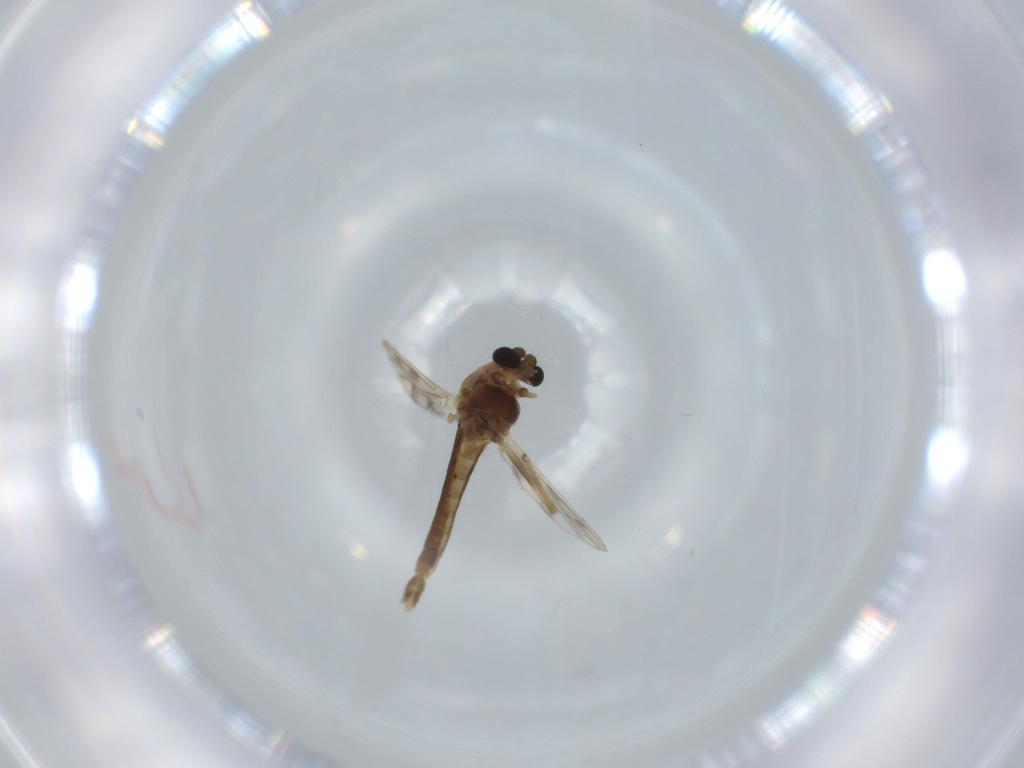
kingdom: Animalia
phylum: Arthropoda
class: Insecta
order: Diptera
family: Chironomidae
